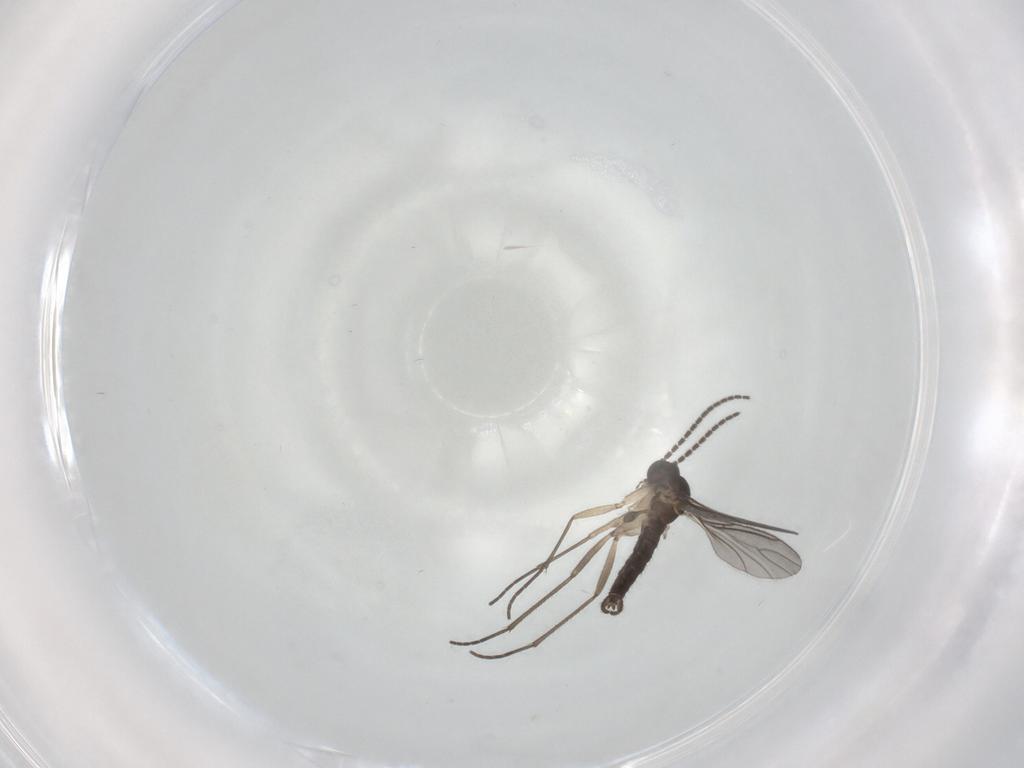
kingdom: Animalia
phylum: Arthropoda
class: Insecta
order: Diptera
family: Sciaridae
